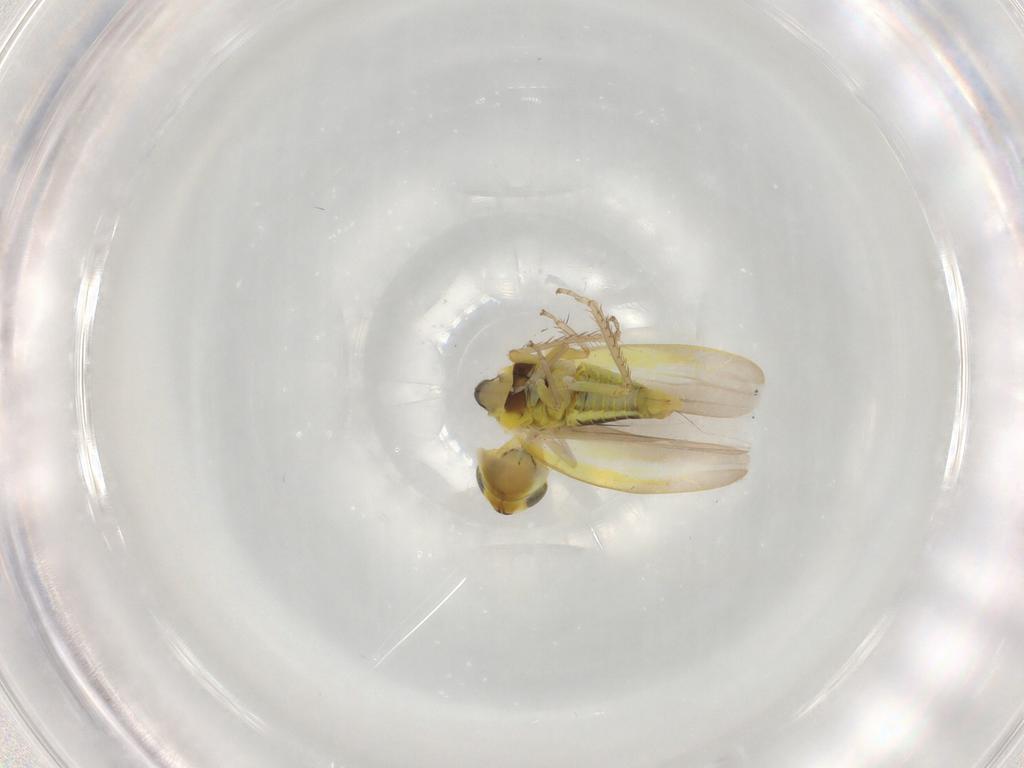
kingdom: Animalia
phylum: Arthropoda
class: Insecta
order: Hemiptera
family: Cicadellidae
